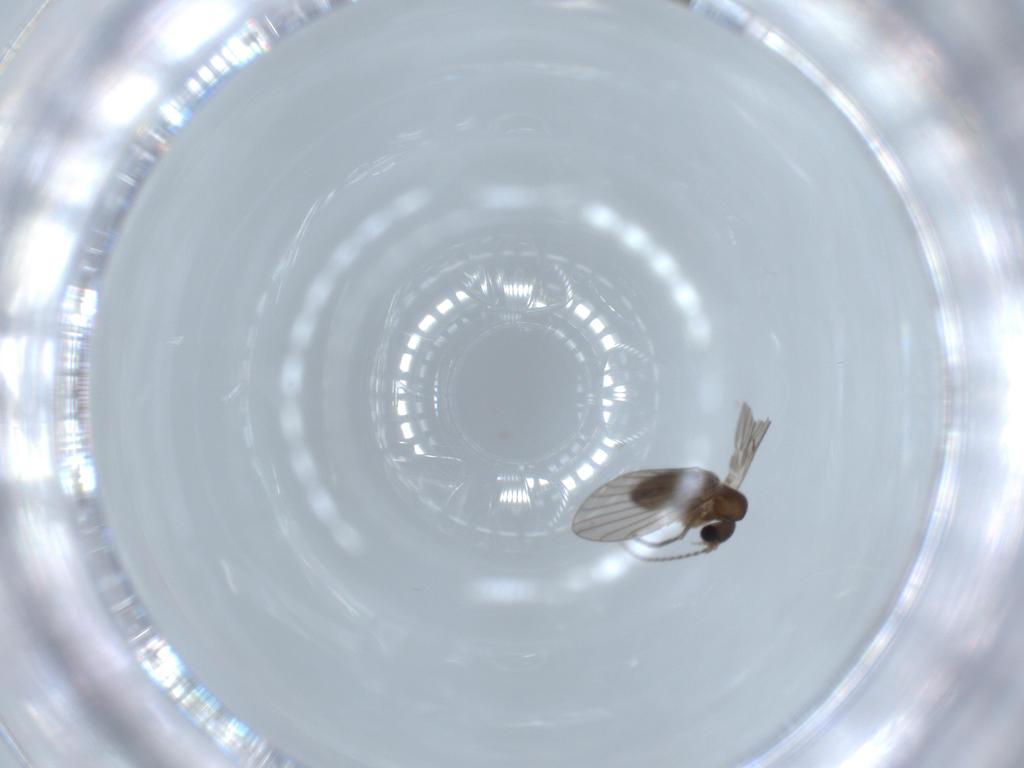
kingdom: Animalia
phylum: Arthropoda
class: Insecta
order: Diptera
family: Psychodidae
